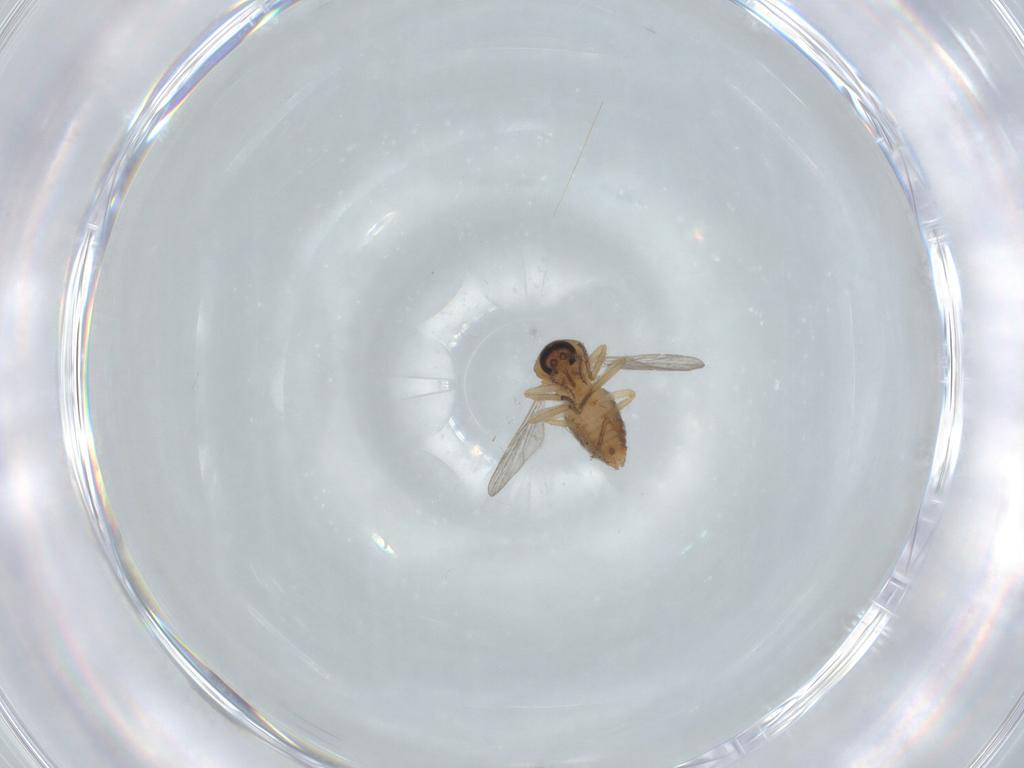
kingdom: Animalia
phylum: Arthropoda
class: Insecta
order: Diptera
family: Ceratopogonidae
